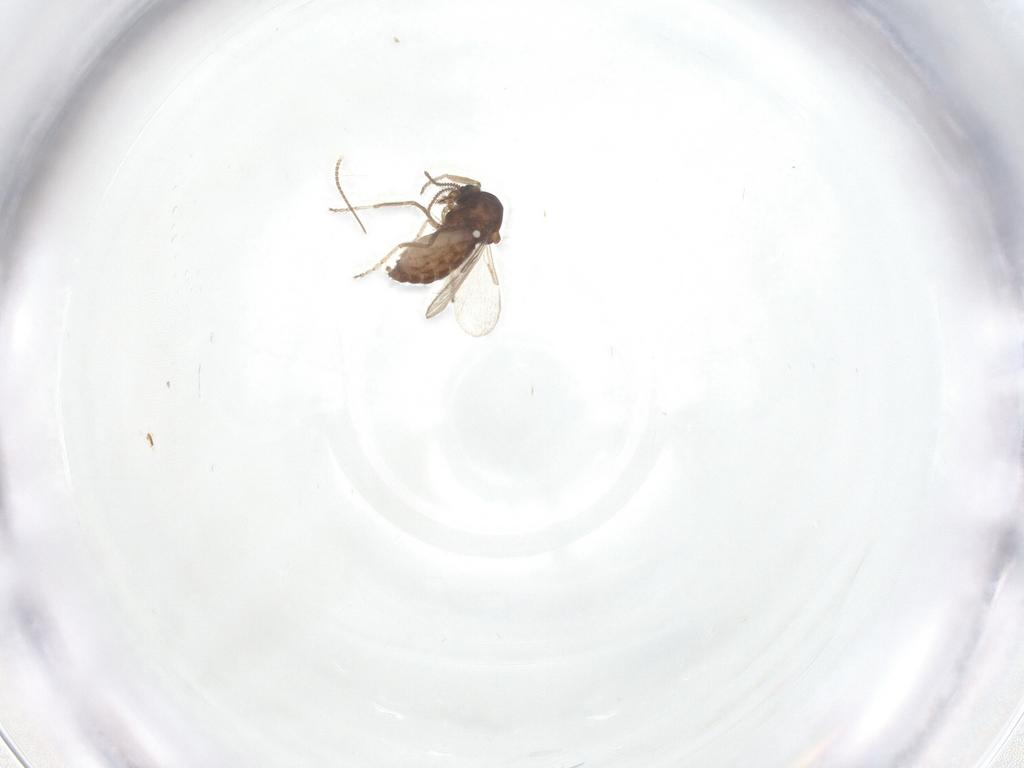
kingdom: Animalia
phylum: Arthropoda
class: Insecta
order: Diptera
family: Ceratopogonidae
